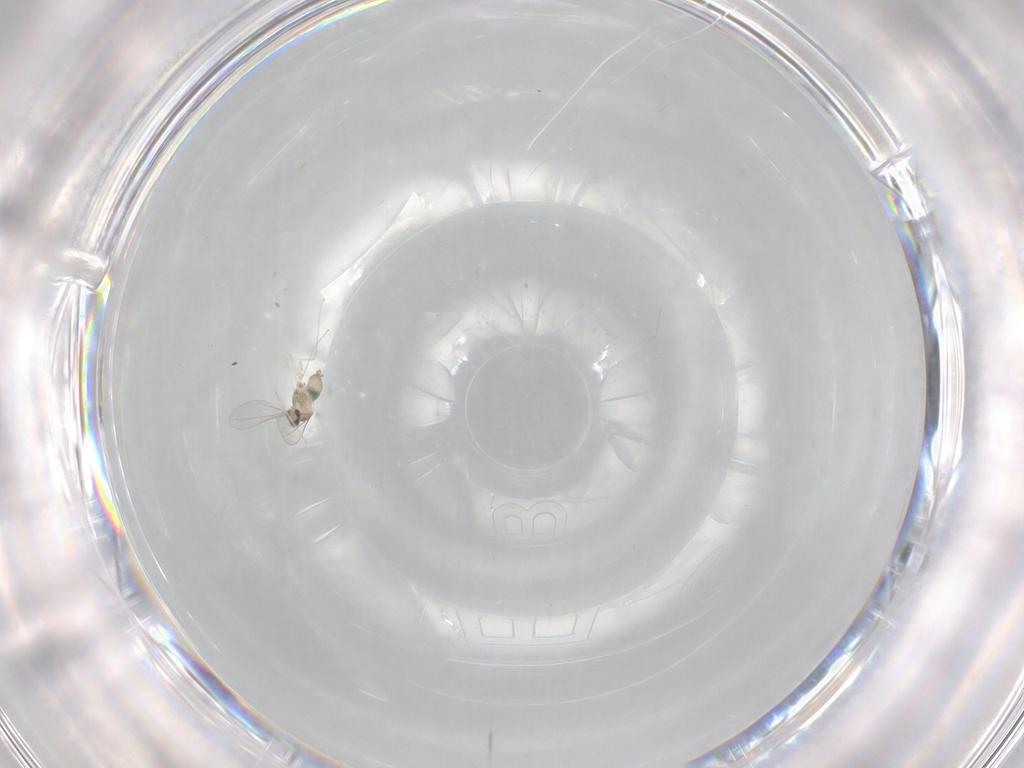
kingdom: Animalia
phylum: Arthropoda
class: Insecta
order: Diptera
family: Cecidomyiidae
